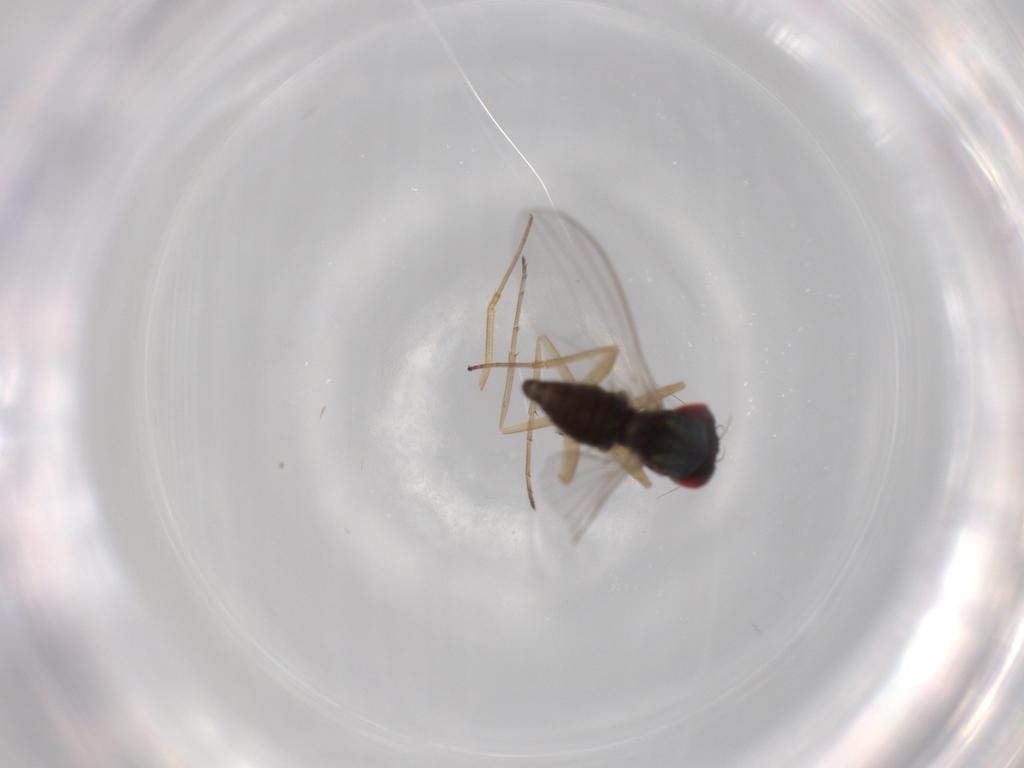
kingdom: Animalia
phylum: Arthropoda
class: Insecta
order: Diptera
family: Dolichopodidae
